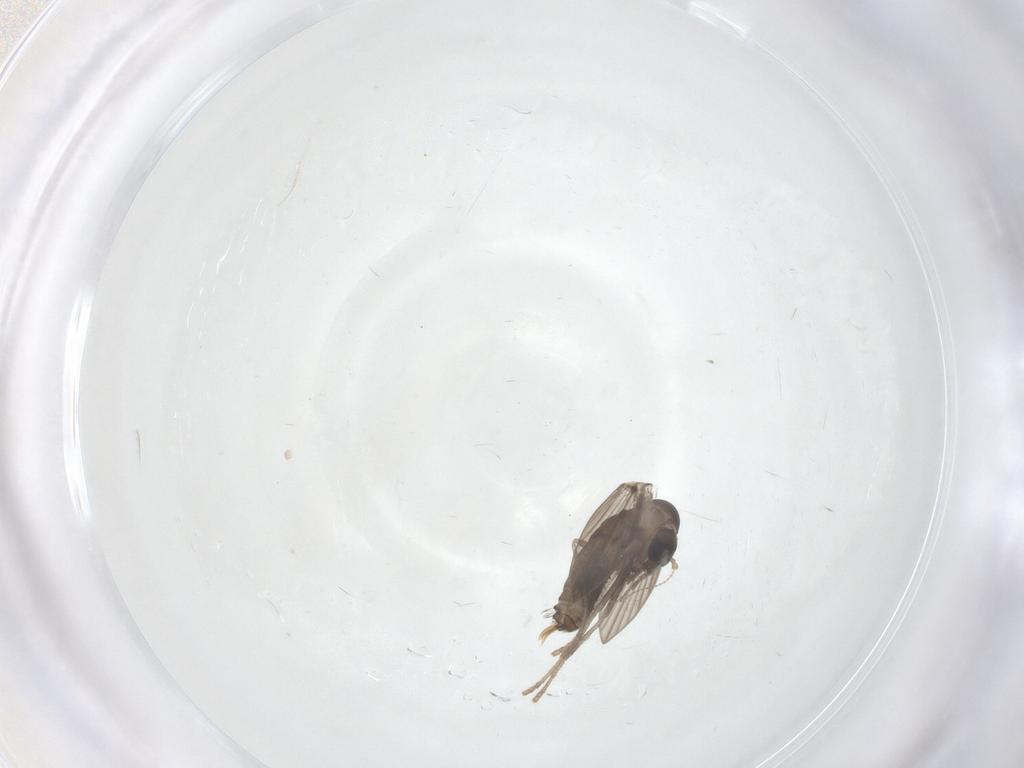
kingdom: Animalia
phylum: Arthropoda
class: Insecta
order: Diptera
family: Psychodidae
